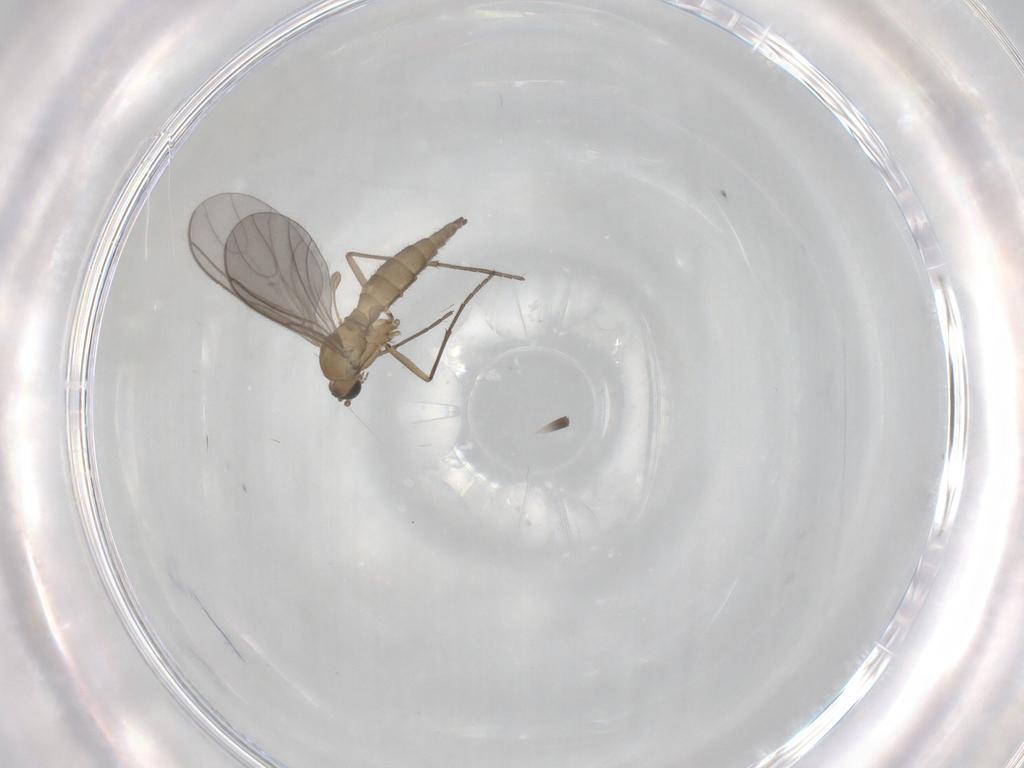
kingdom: Animalia
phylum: Arthropoda
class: Insecta
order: Diptera
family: Sciaridae
